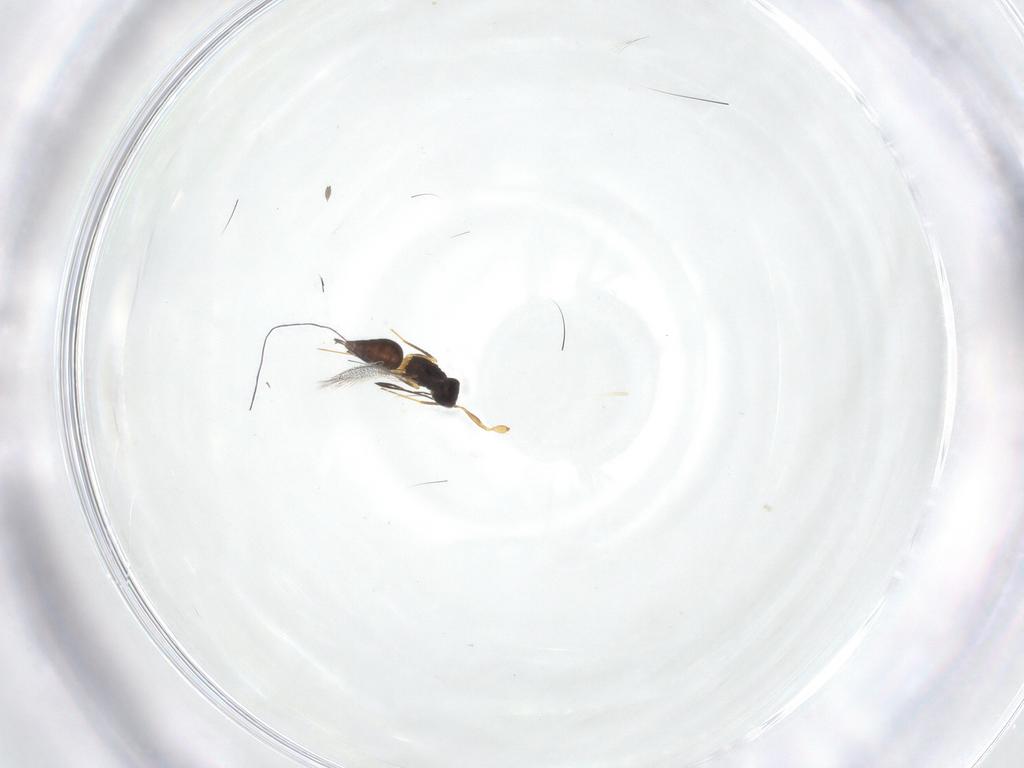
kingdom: Animalia
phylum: Arthropoda
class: Insecta
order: Hymenoptera
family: Mymaridae
